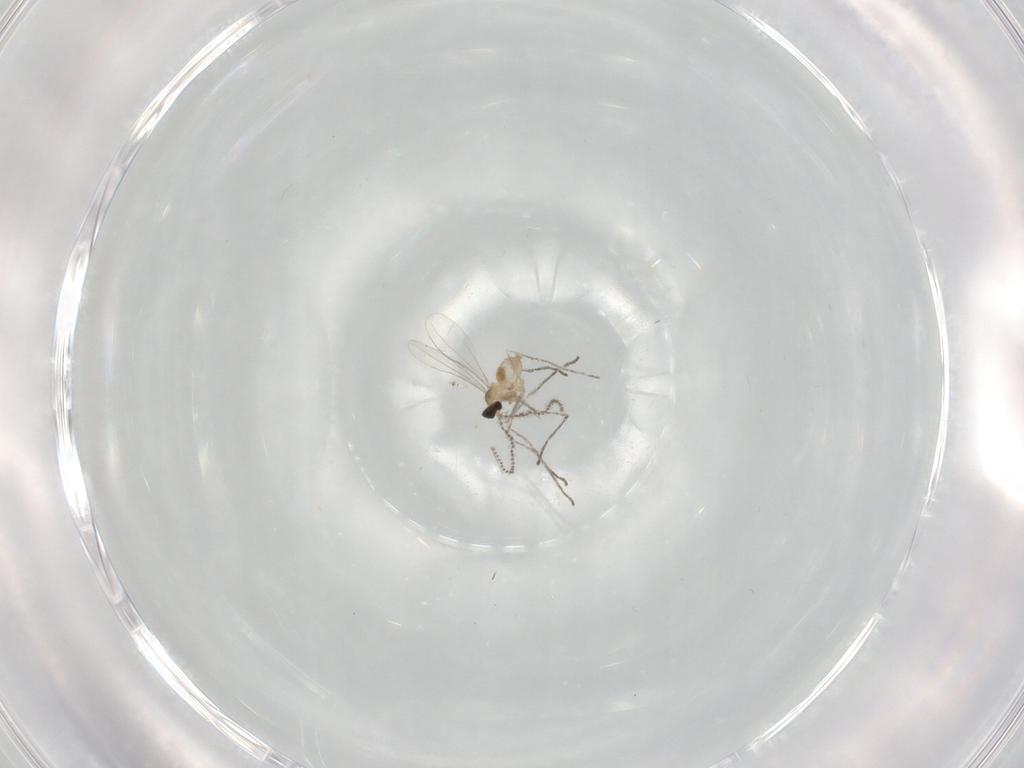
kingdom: Animalia
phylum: Arthropoda
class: Insecta
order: Diptera
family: Cecidomyiidae
